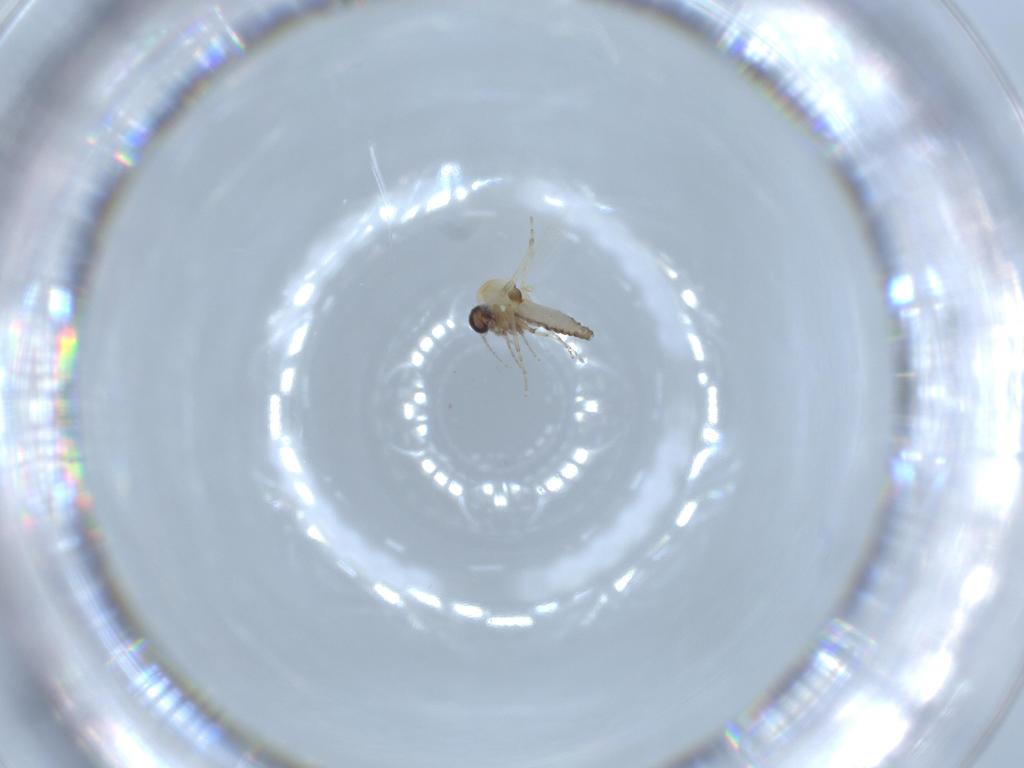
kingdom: Animalia
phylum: Arthropoda
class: Insecta
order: Diptera
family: Ceratopogonidae
